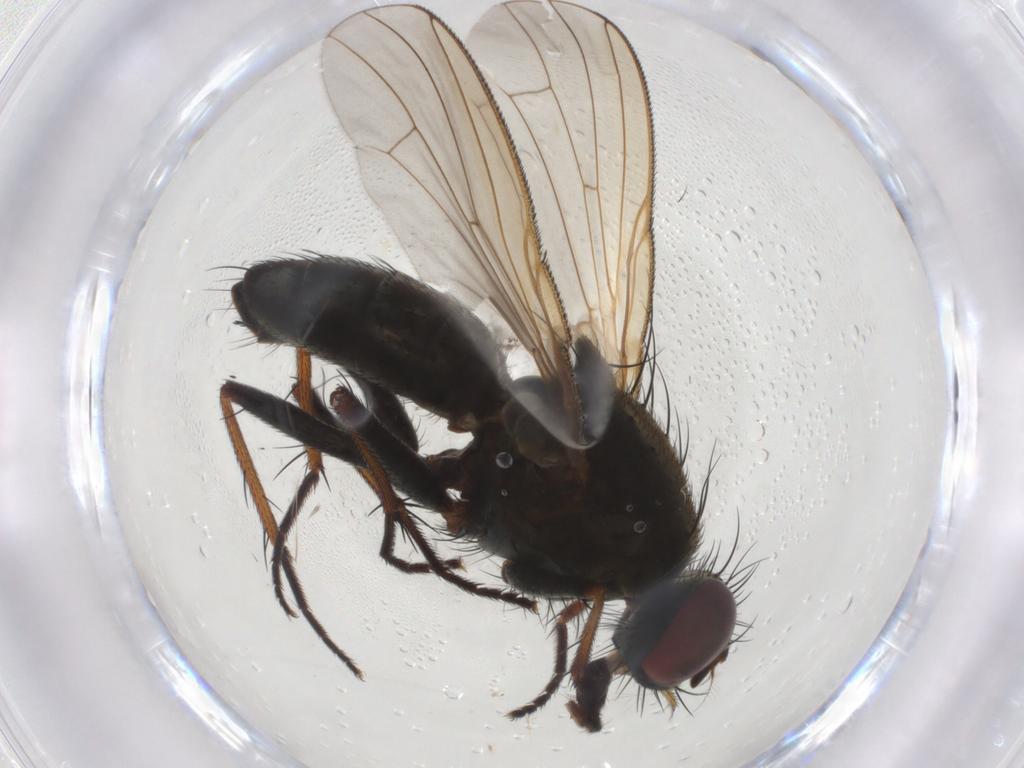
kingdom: Animalia
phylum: Arthropoda
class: Insecta
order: Diptera
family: Muscidae
